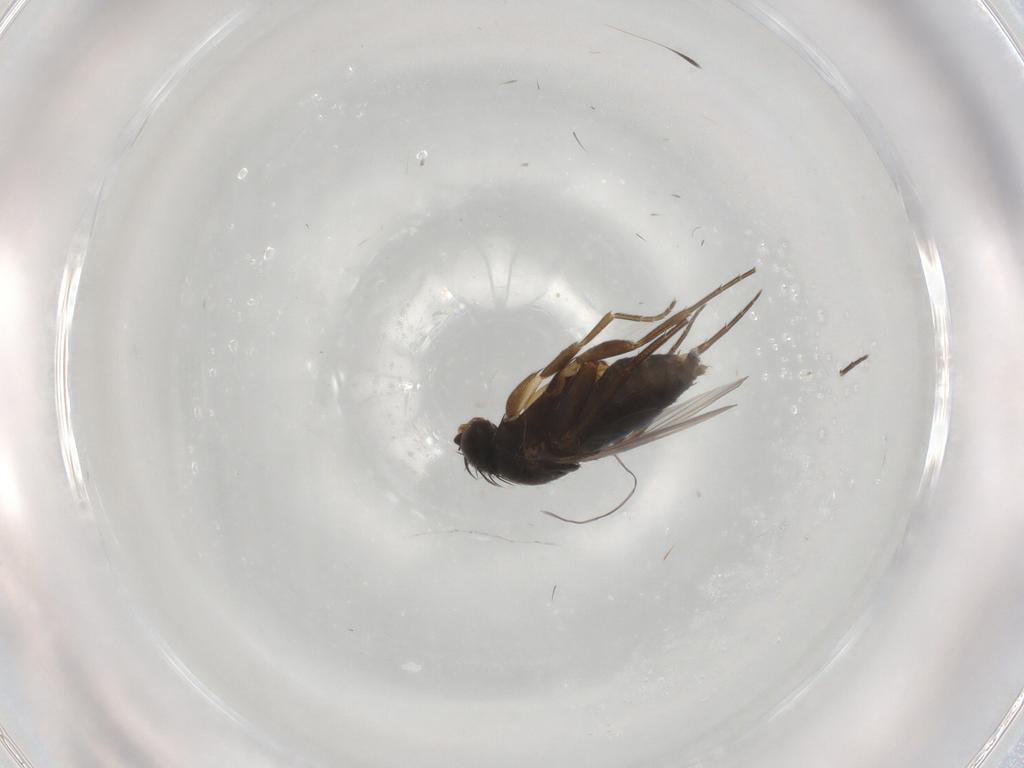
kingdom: Animalia
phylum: Arthropoda
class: Insecta
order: Diptera
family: Phoridae
